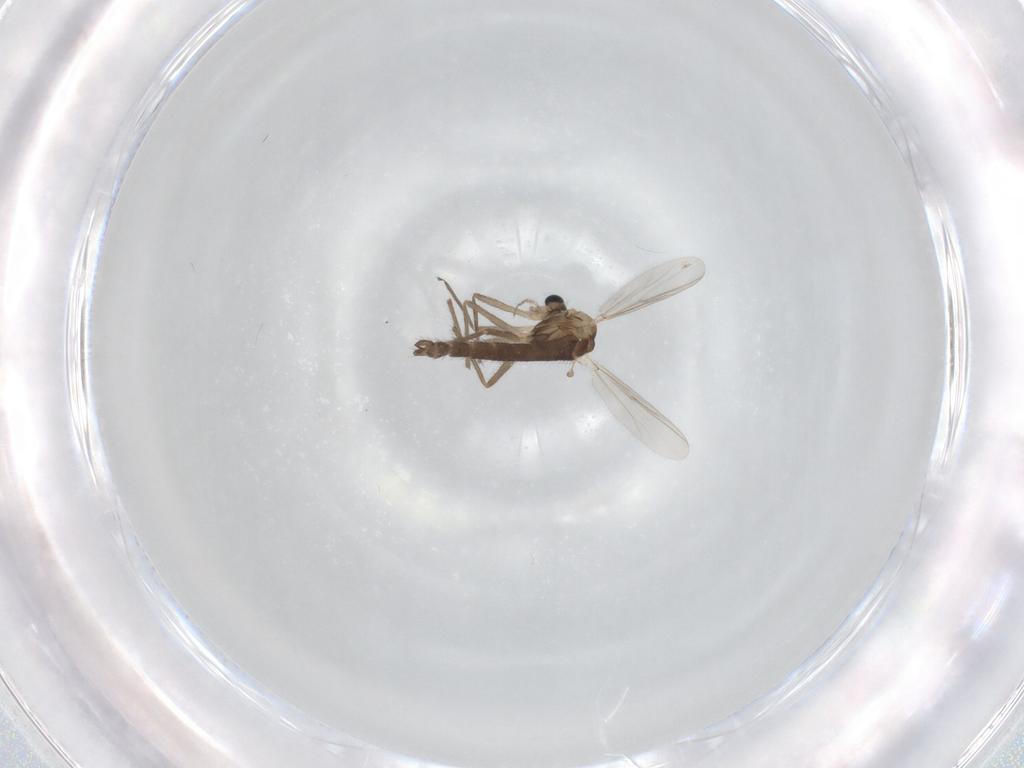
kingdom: Animalia
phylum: Arthropoda
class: Insecta
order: Diptera
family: Chironomidae
